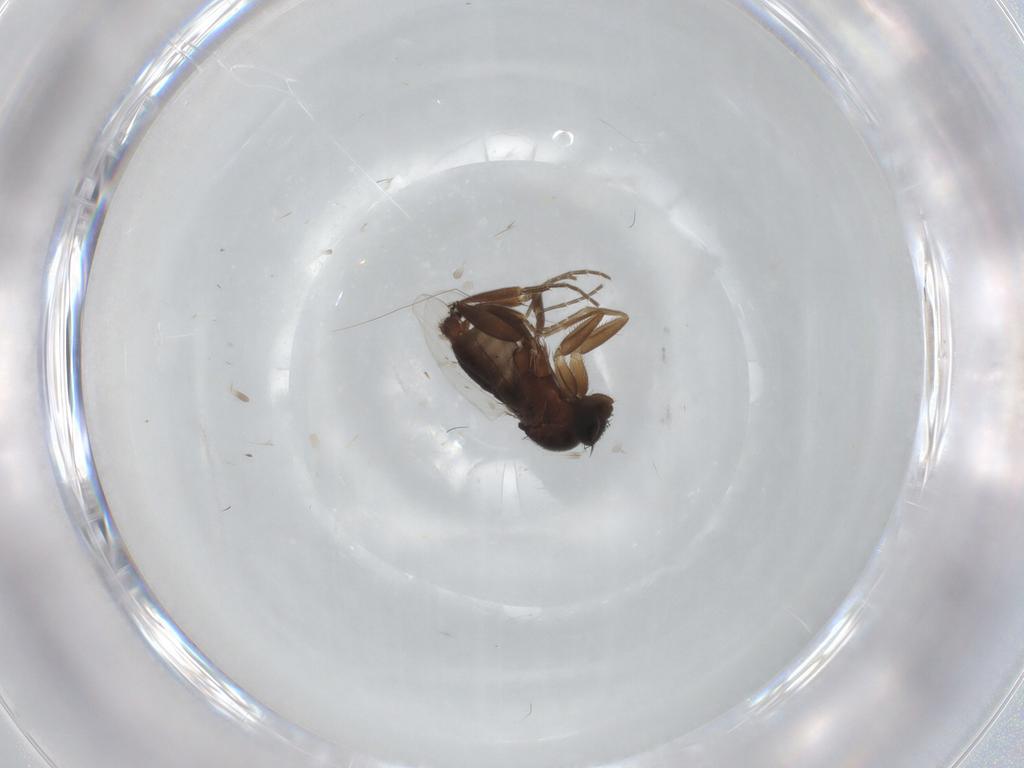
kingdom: Animalia
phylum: Arthropoda
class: Insecta
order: Diptera
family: Phoridae
